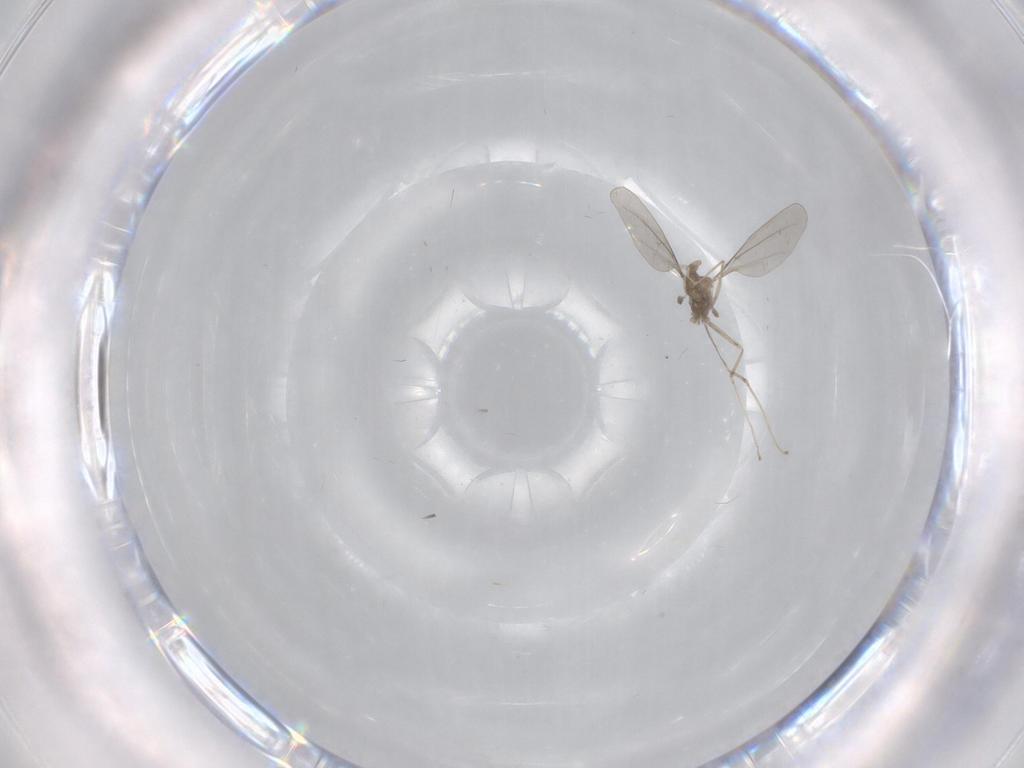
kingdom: Animalia
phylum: Arthropoda
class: Insecta
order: Diptera
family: Cecidomyiidae
